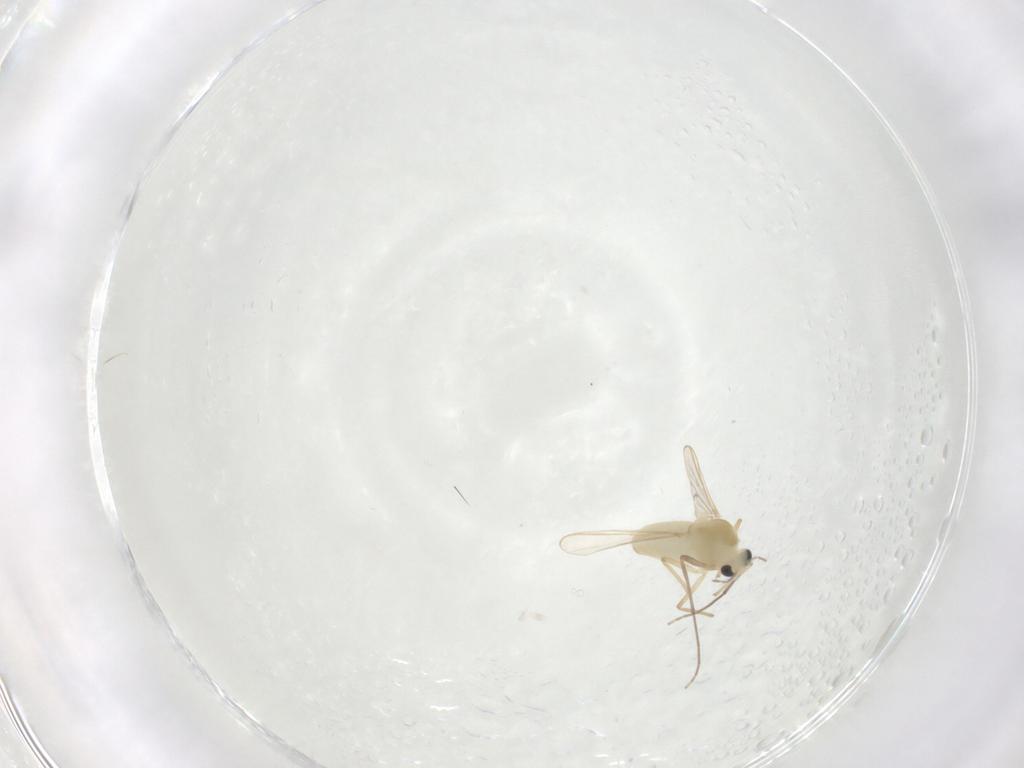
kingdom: Animalia
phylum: Arthropoda
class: Insecta
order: Diptera
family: Chironomidae
